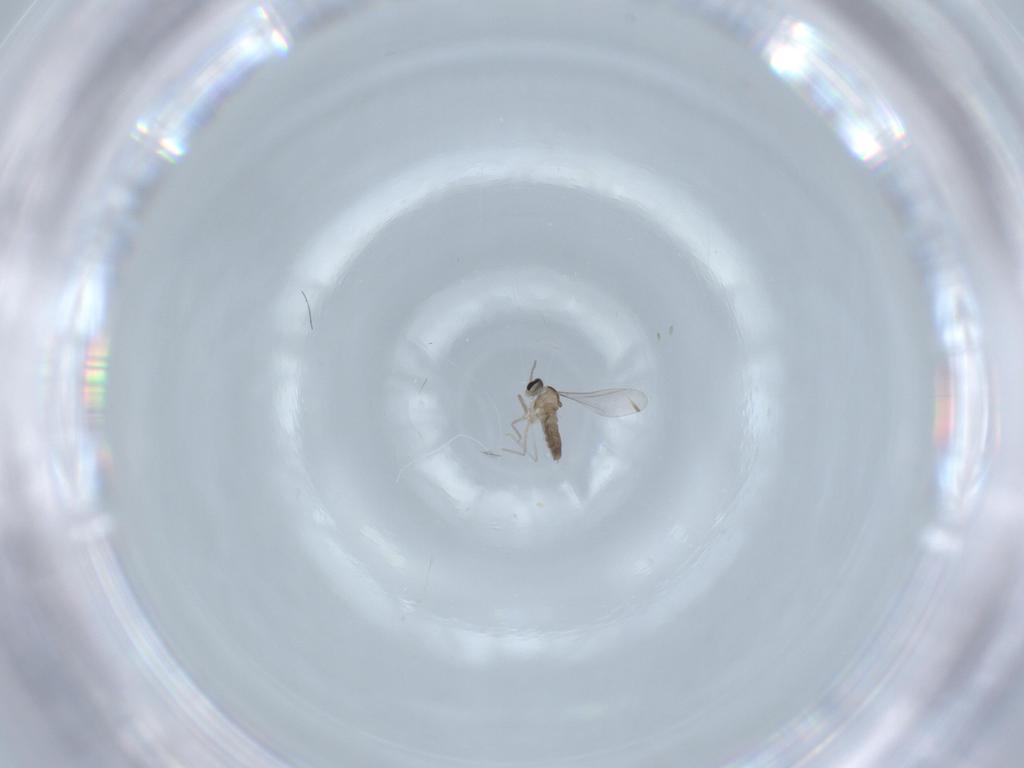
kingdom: Animalia
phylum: Arthropoda
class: Insecta
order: Diptera
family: Cecidomyiidae
